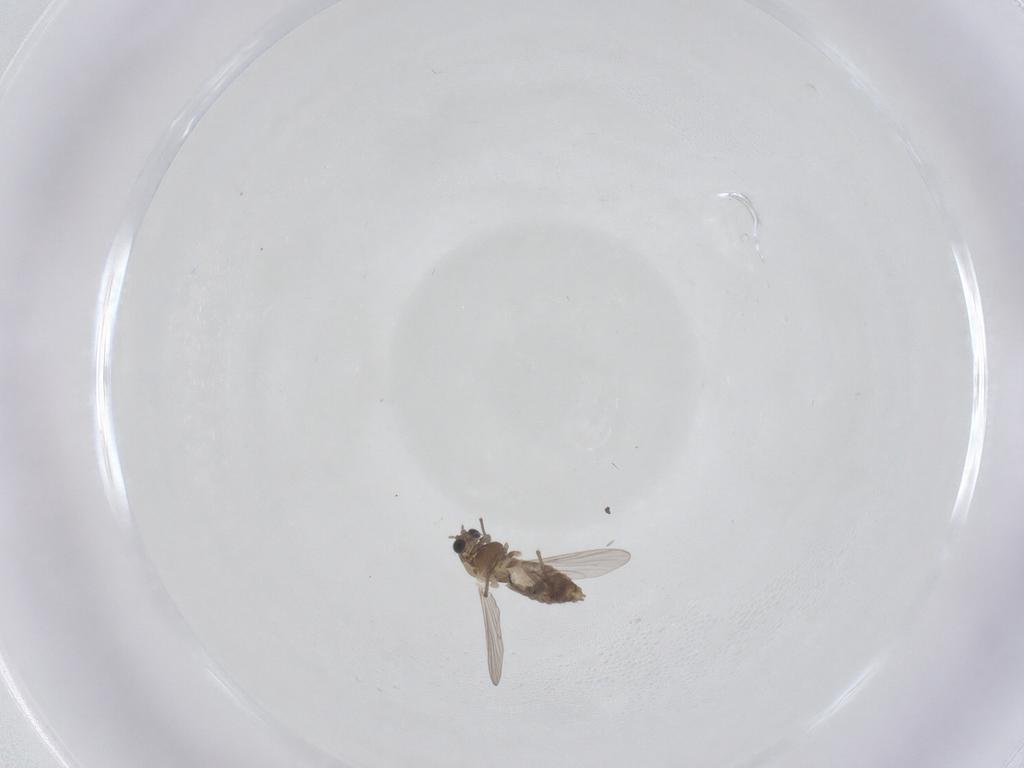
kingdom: Animalia
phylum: Arthropoda
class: Insecta
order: Diptera
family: Chironomidae
